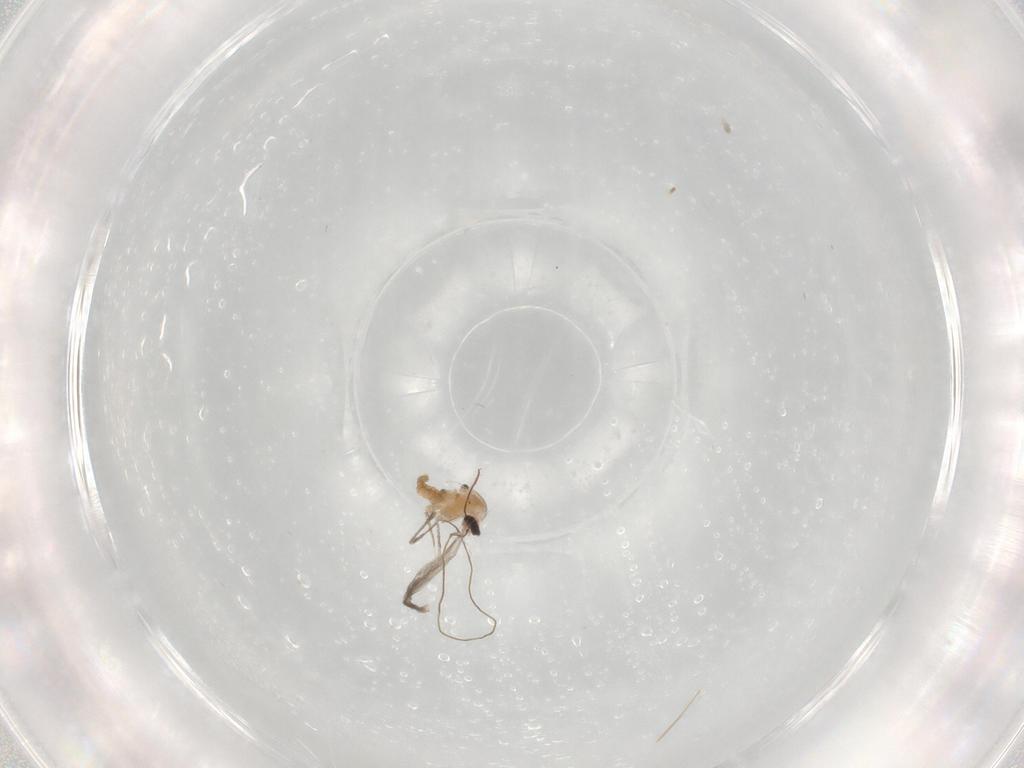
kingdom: Animalia
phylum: Arthropoda
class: Insecta
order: Diptera
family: Cecidomyiidae
